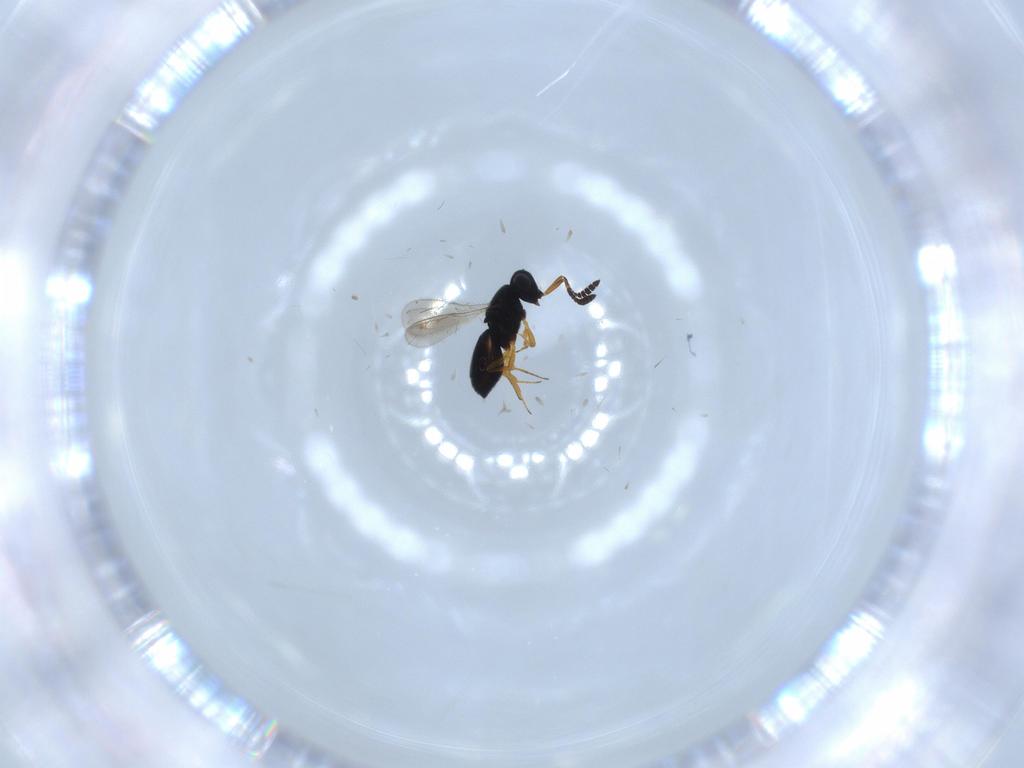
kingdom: Animalia
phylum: Arthropoda
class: Insecta
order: Hymenoptera
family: Scelionidae
